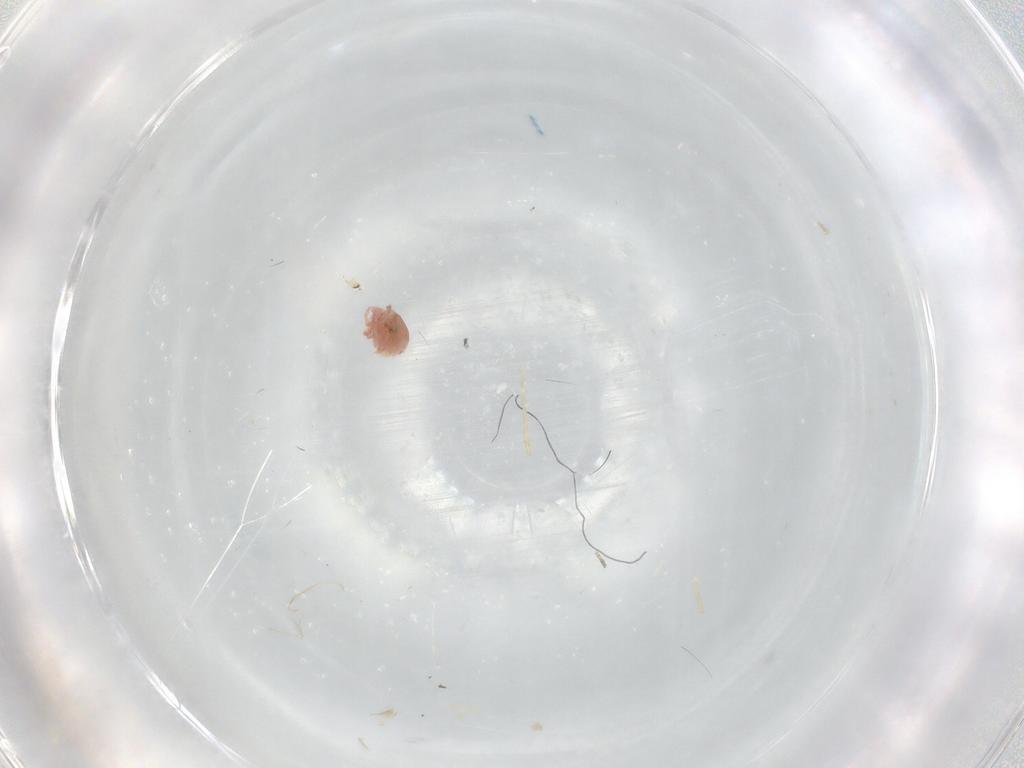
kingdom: Animalia
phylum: Arthropoda
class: Arachnida
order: Trombidiformes
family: Lebertiidae
